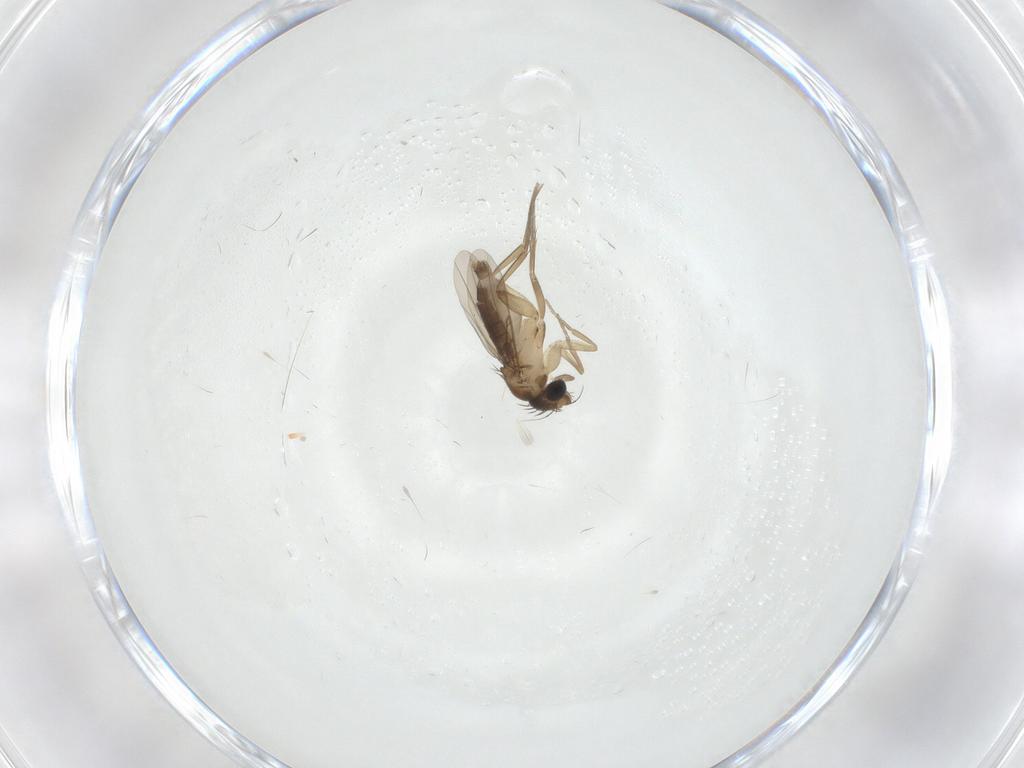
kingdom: Animalia
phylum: Arthropoda
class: Insecta
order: Diptera
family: Phoridae
